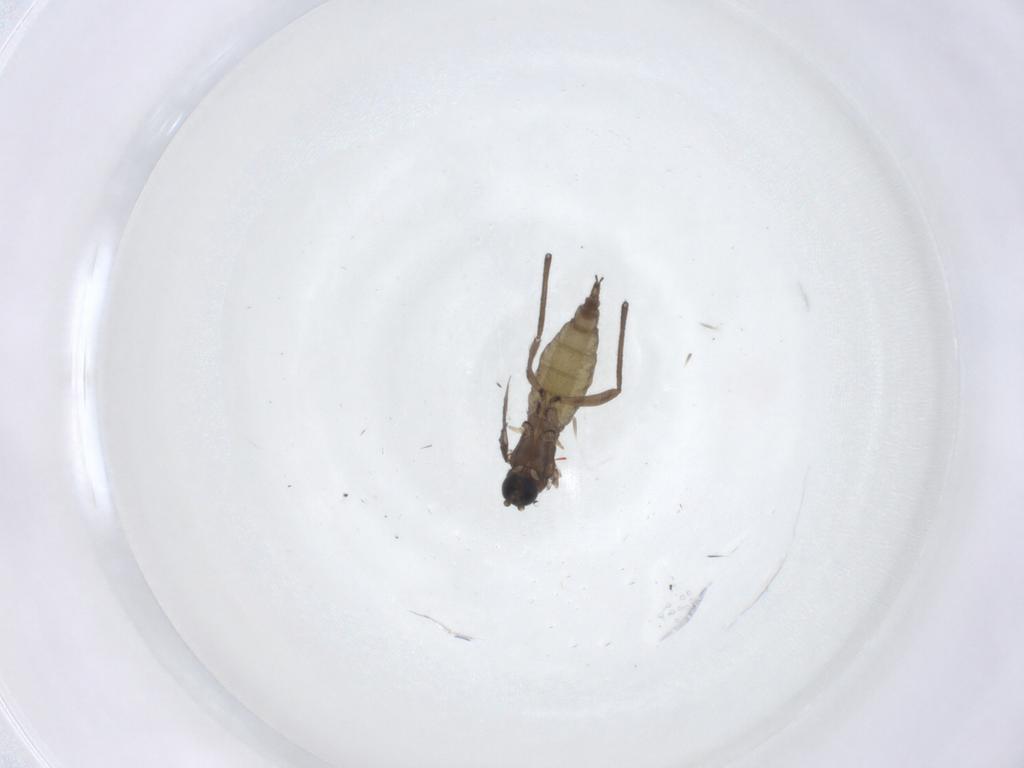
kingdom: Animalia
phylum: Arthropoda
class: Insecta
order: Diptera
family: Sciaridae
